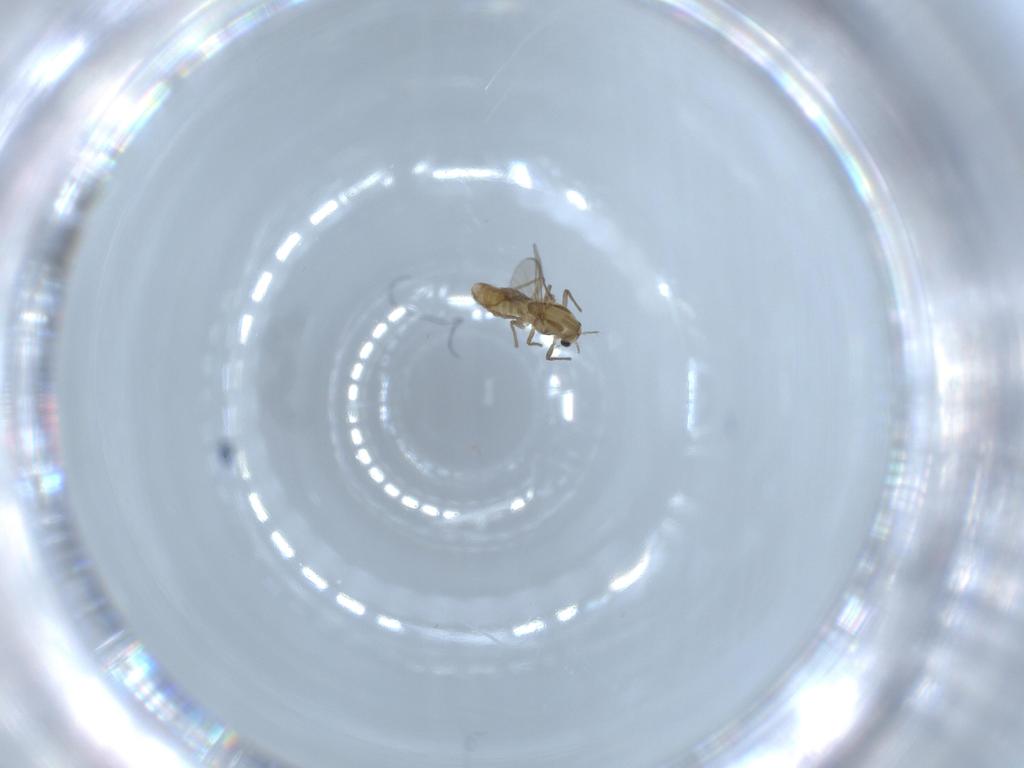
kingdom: Animalia
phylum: Arthropoda
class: Insecta
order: Diptera
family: Chironomidae
